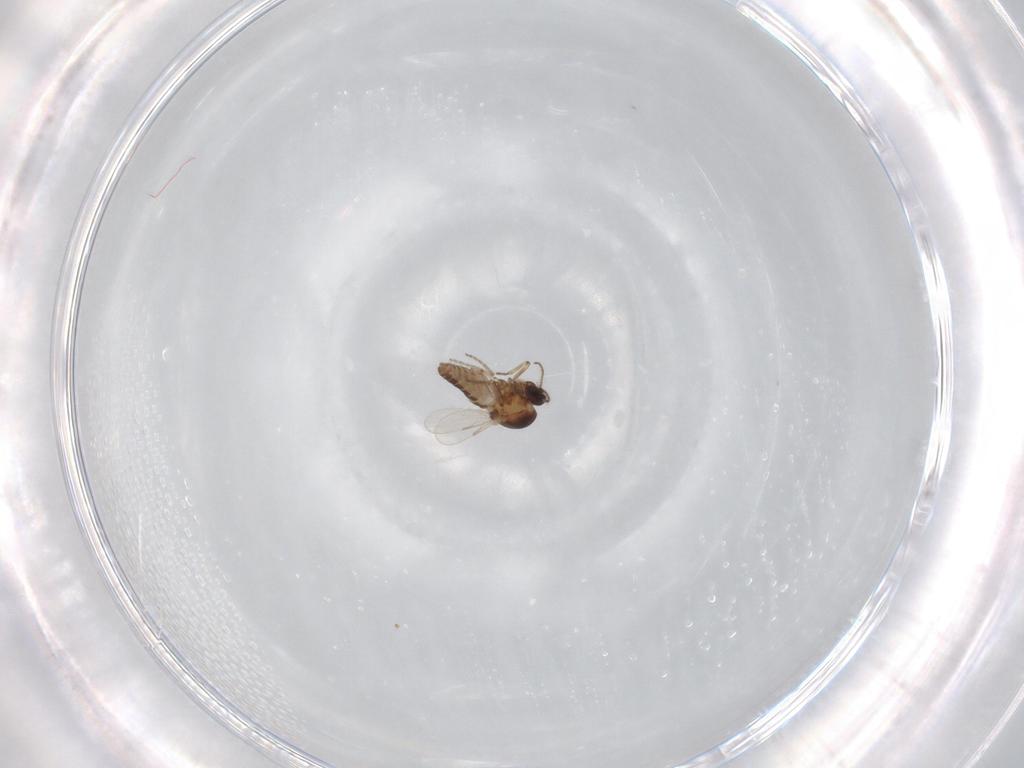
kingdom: Animalia
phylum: Arthropoda
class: Insecta
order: Diptera
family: Ceratopogonidae
